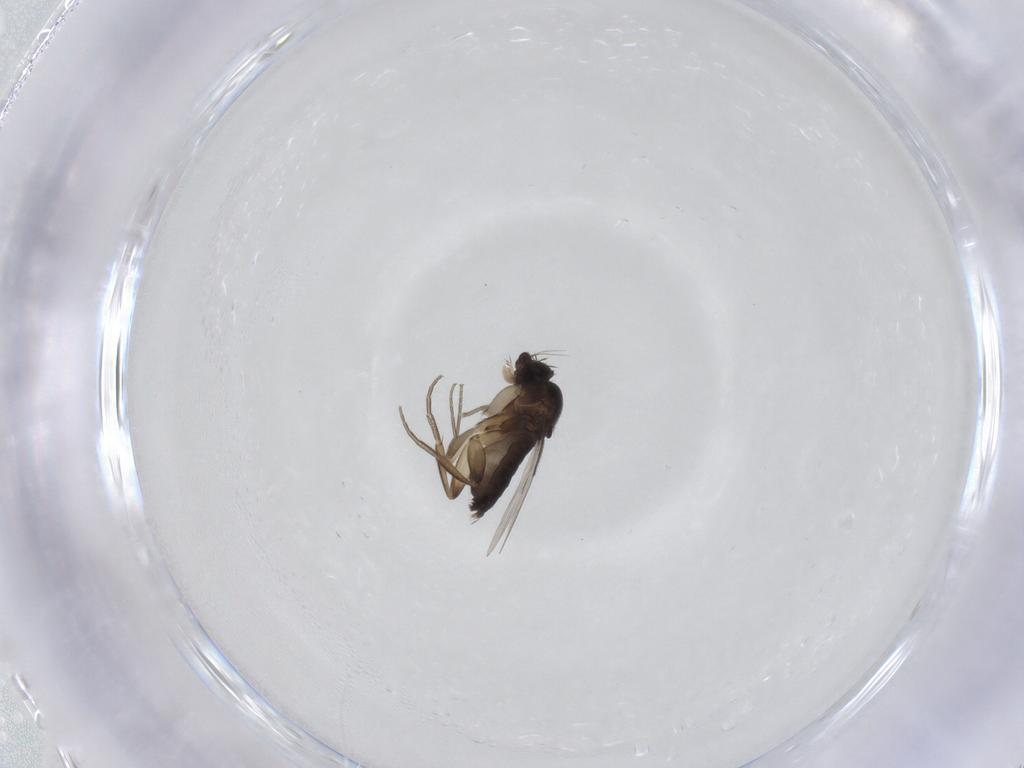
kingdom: Animalia
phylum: Arthropoda
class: Insecta
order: Diptera
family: Phoridae
